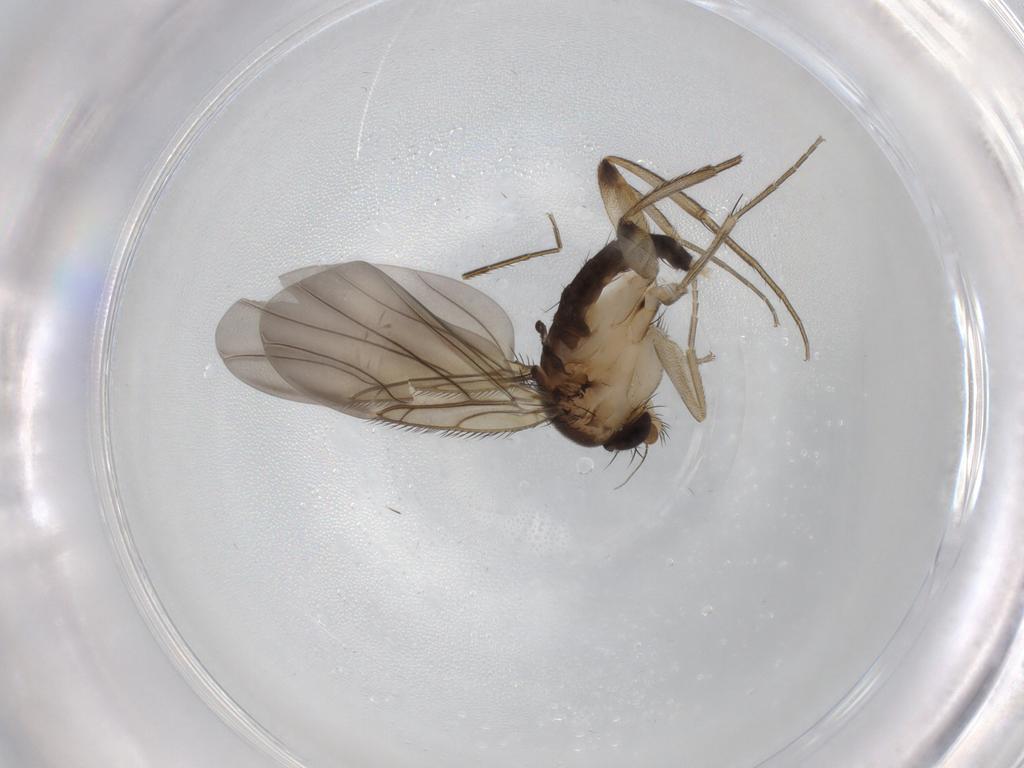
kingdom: Animalia
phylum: Arthropoda
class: Insecta
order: Diptera
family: Phoridae
